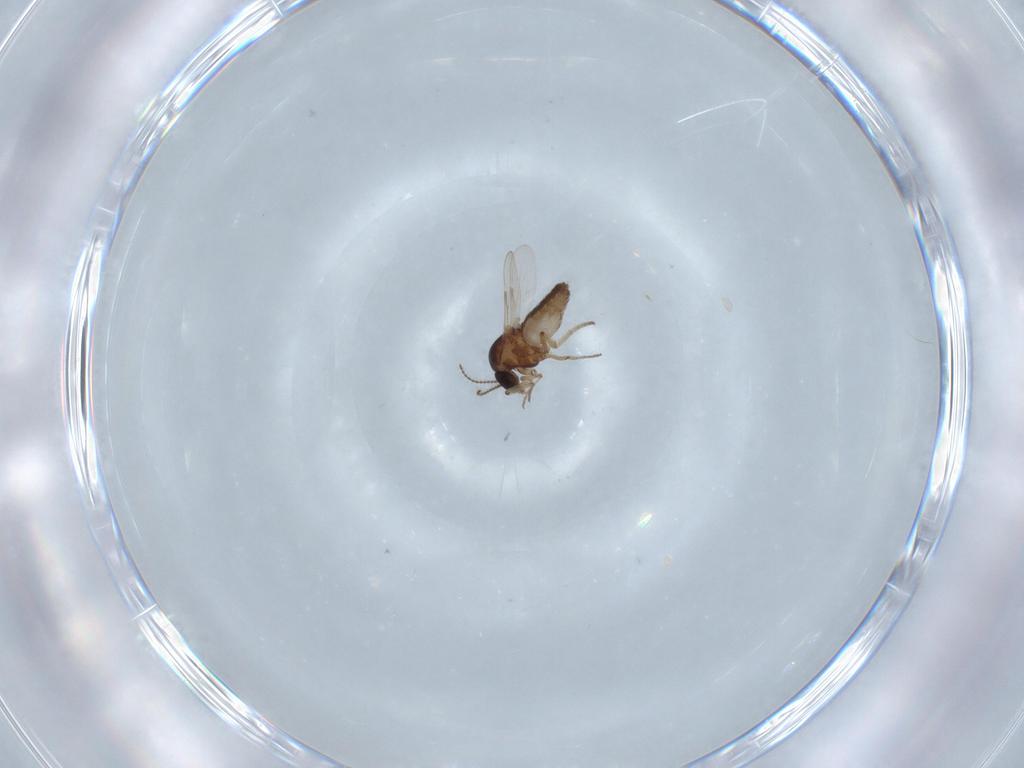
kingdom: Animalia
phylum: Arthropoda
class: Insecta
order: Diptera
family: Ceratopogonidae
